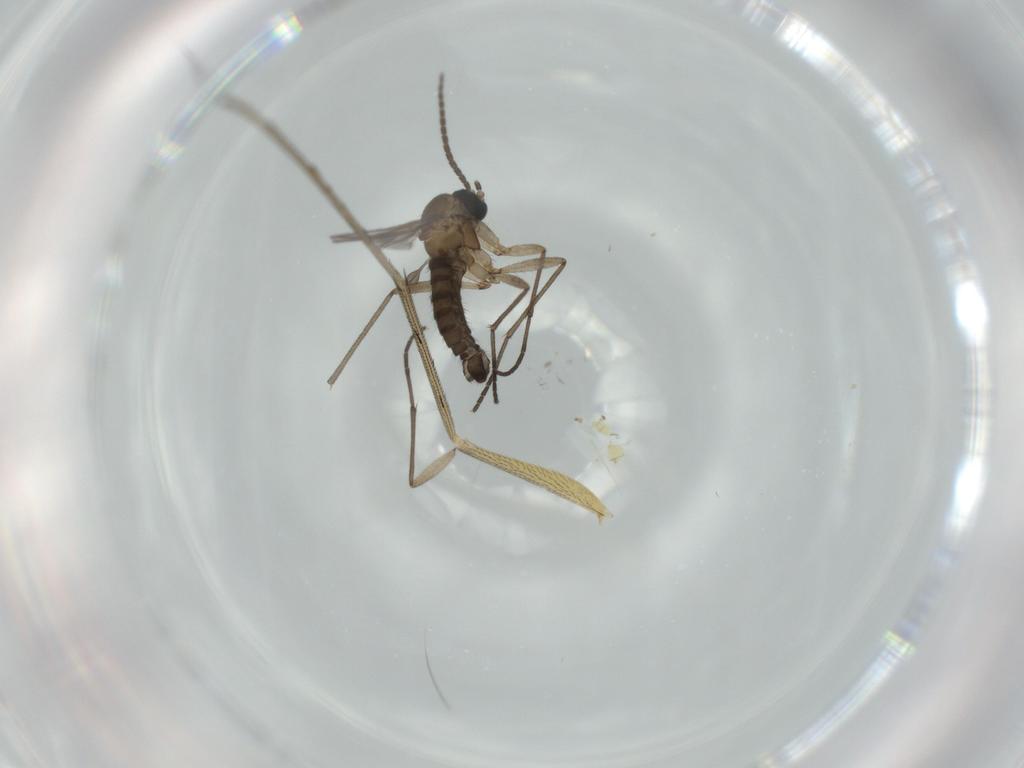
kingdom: Animalia
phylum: Arthropoda
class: Insecta
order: Diptera
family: Dolichopodidae
